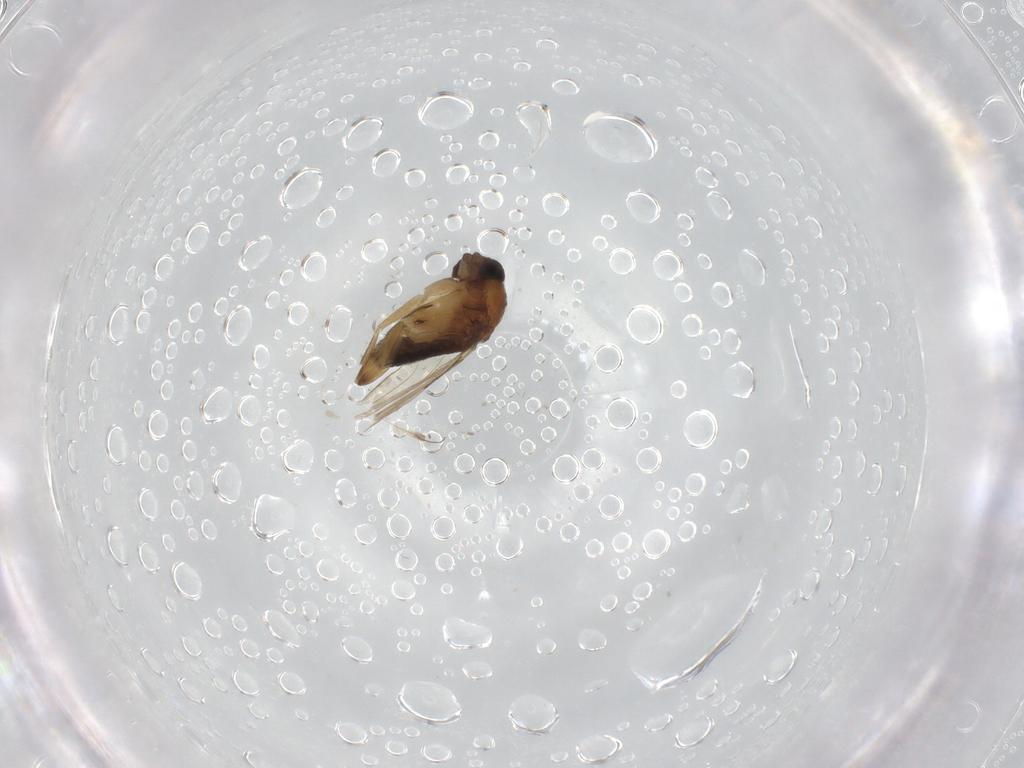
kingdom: Animalia
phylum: Arthropoda
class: Insecta
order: Diptera
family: Phoridae
